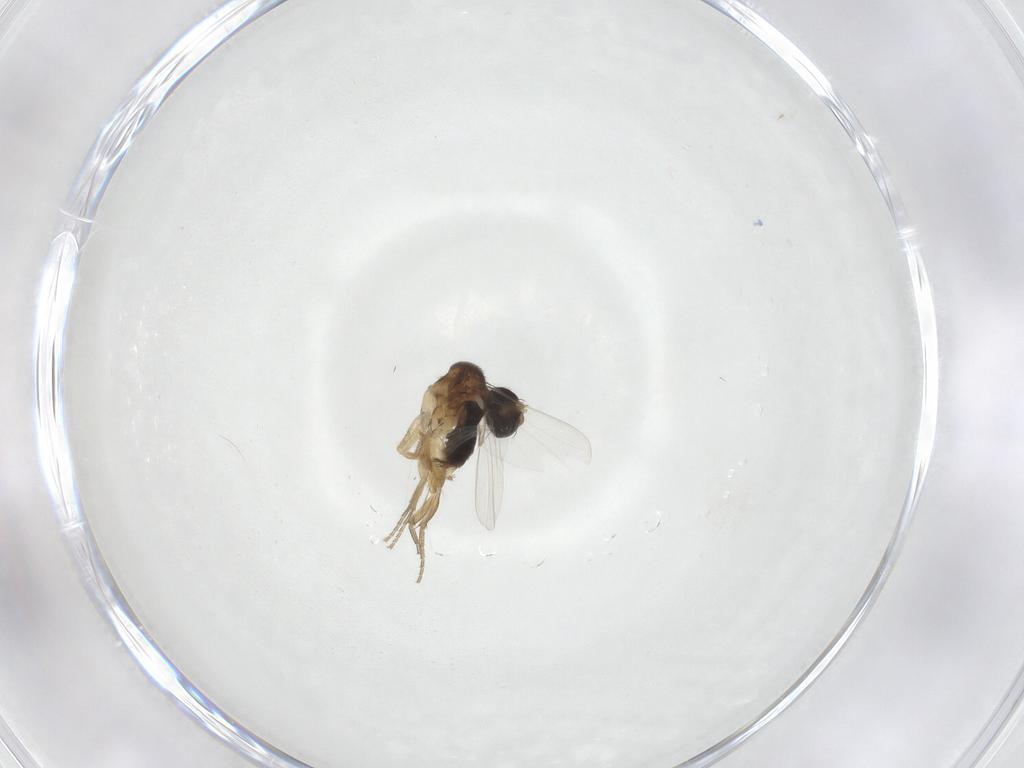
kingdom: Animalia
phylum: Arthropoda
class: Insecta
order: Diptera
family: Phoridae
